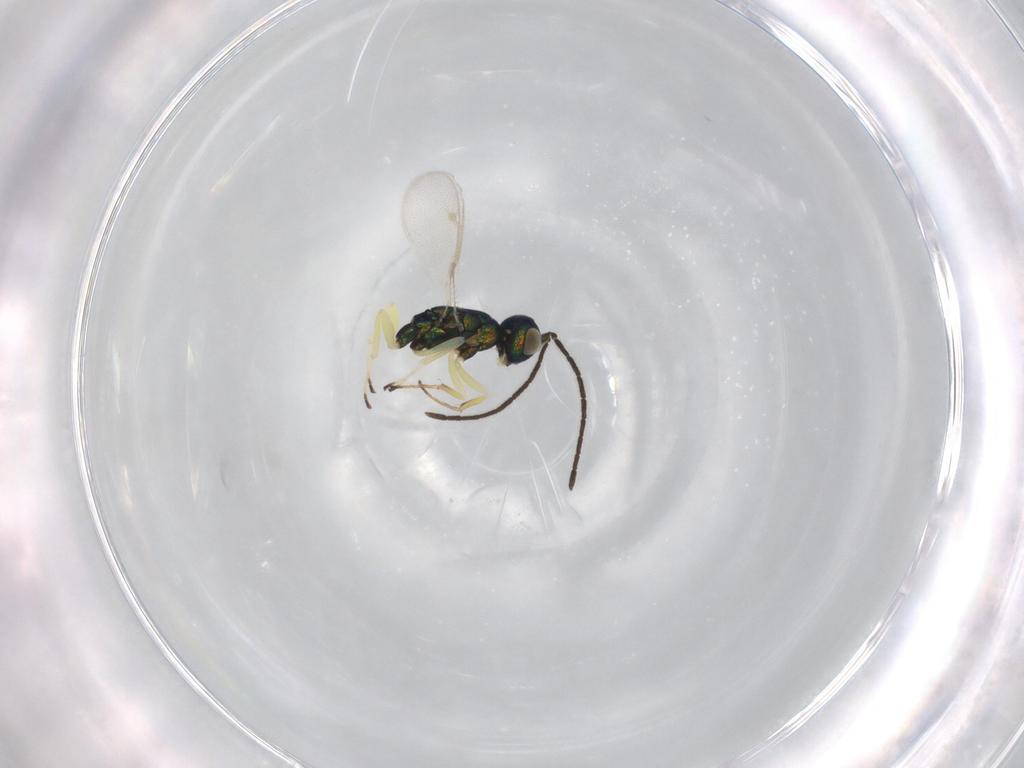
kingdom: Animalia
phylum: Arthropoda
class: Insecta
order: Hymenoptera
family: Pteromalidae
